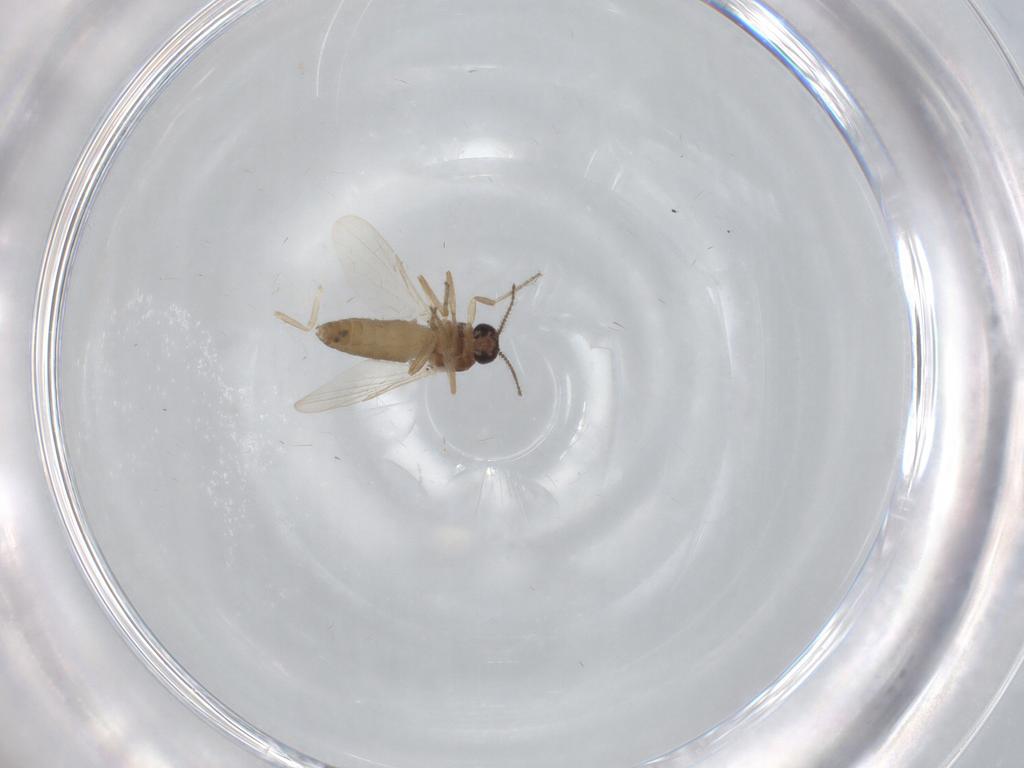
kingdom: Animalia
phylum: Arthropoda
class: Insecta
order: Diptera
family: Ceratopogonidae
